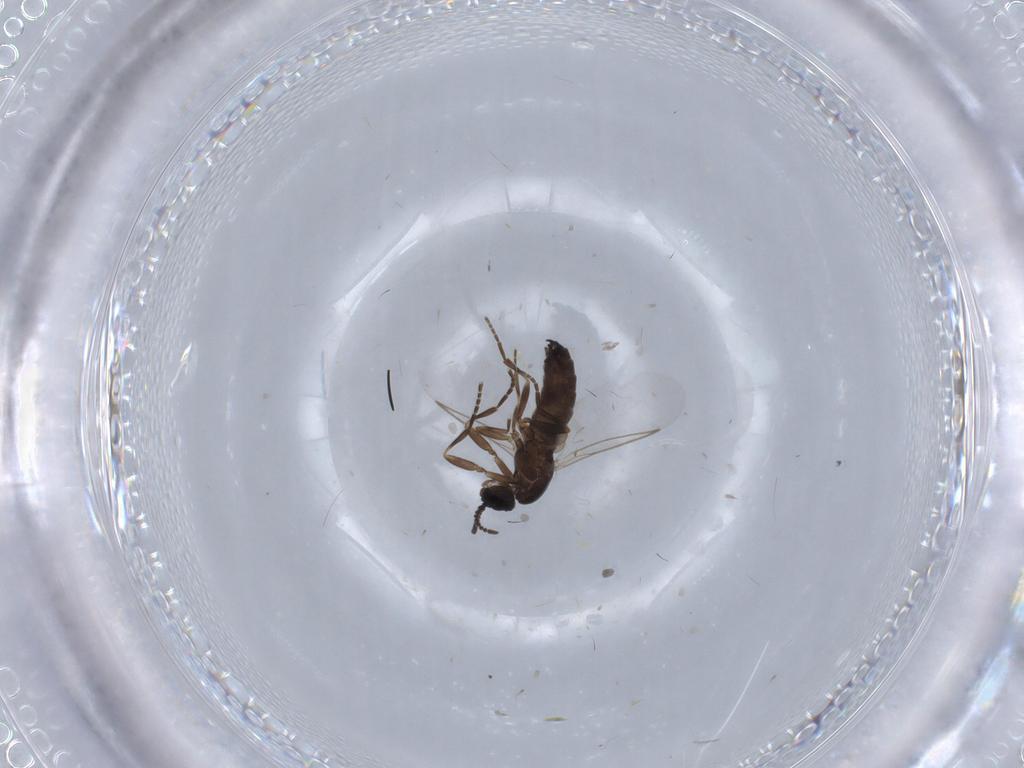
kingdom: Animalia
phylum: Arthropoda
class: Insecta
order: Diptera
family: Scatopsidae
